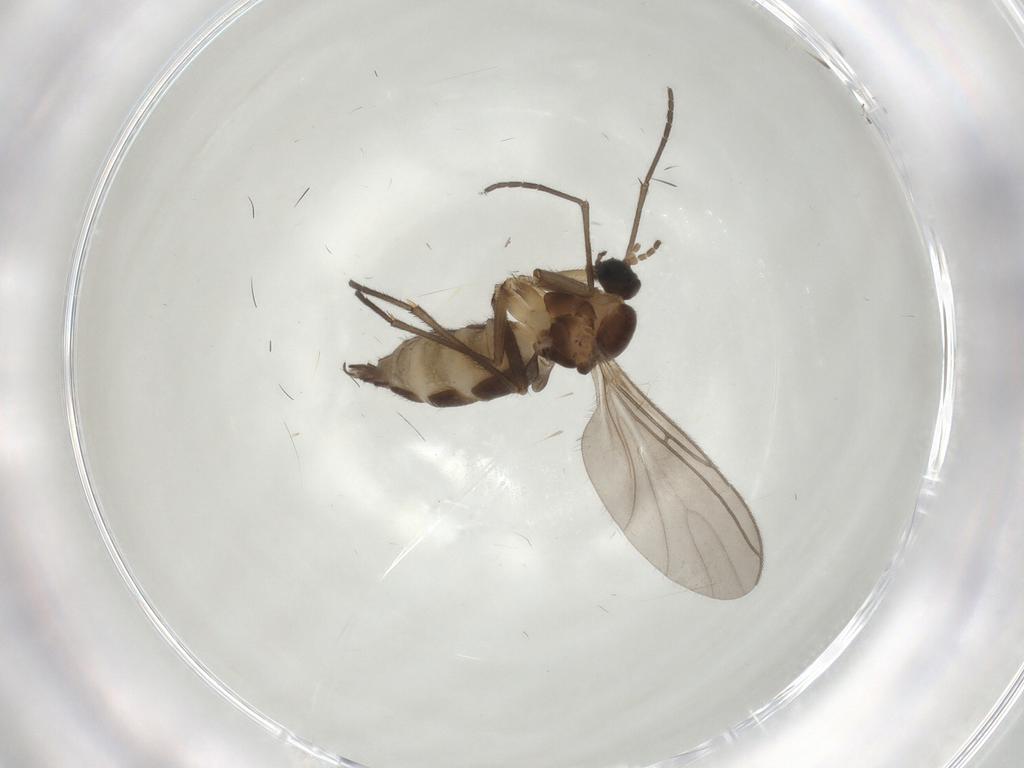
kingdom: Animalia
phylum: Arthropoda
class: Insecta
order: Diptera
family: Sciaridae
